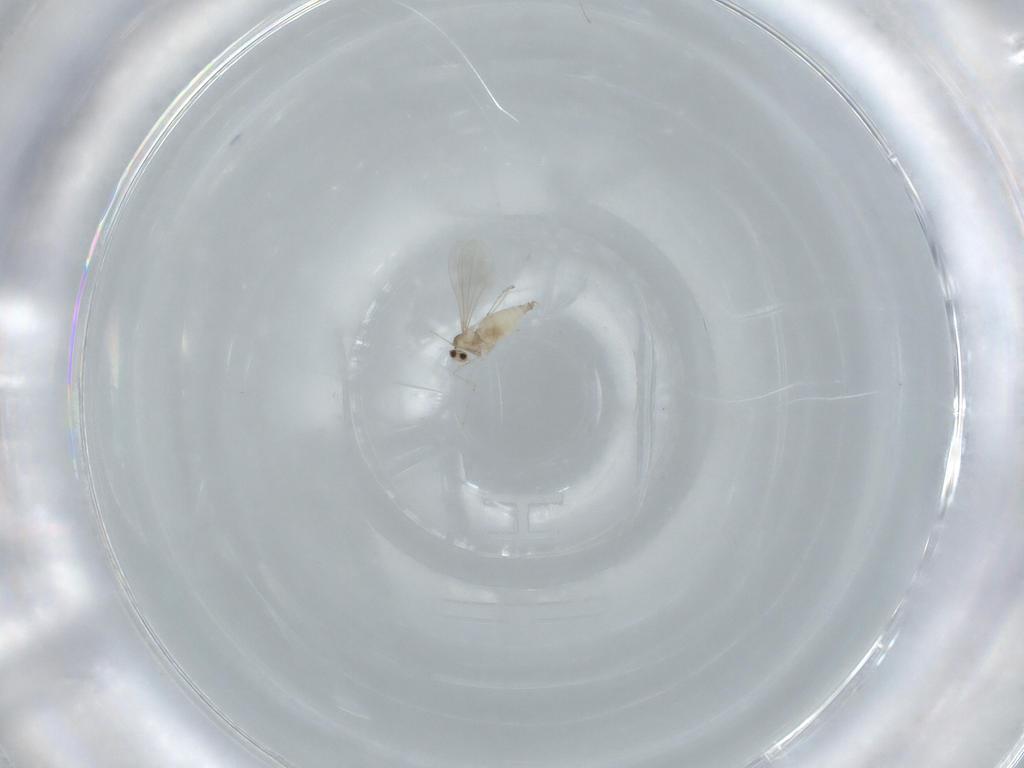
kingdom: Animalia
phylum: Arthropoda
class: Insecta
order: Diptera
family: Cecidomyiidae
